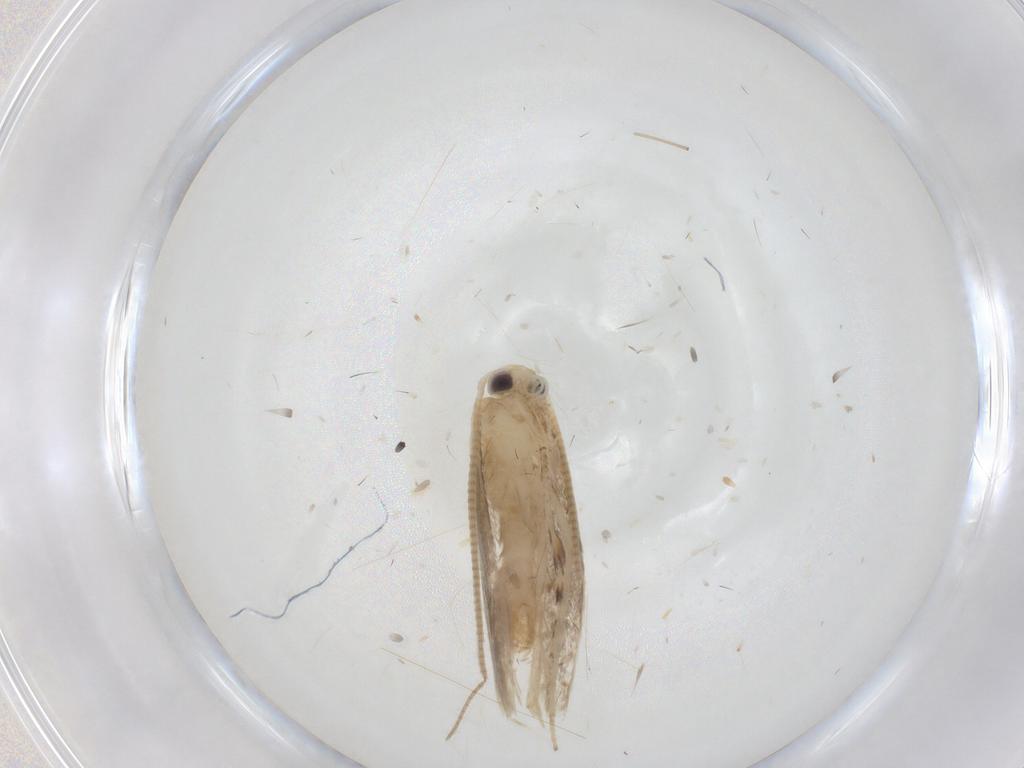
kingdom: Animalia
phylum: Arthropoda
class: Insecta
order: Lepidoptera
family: Gracillariidae
